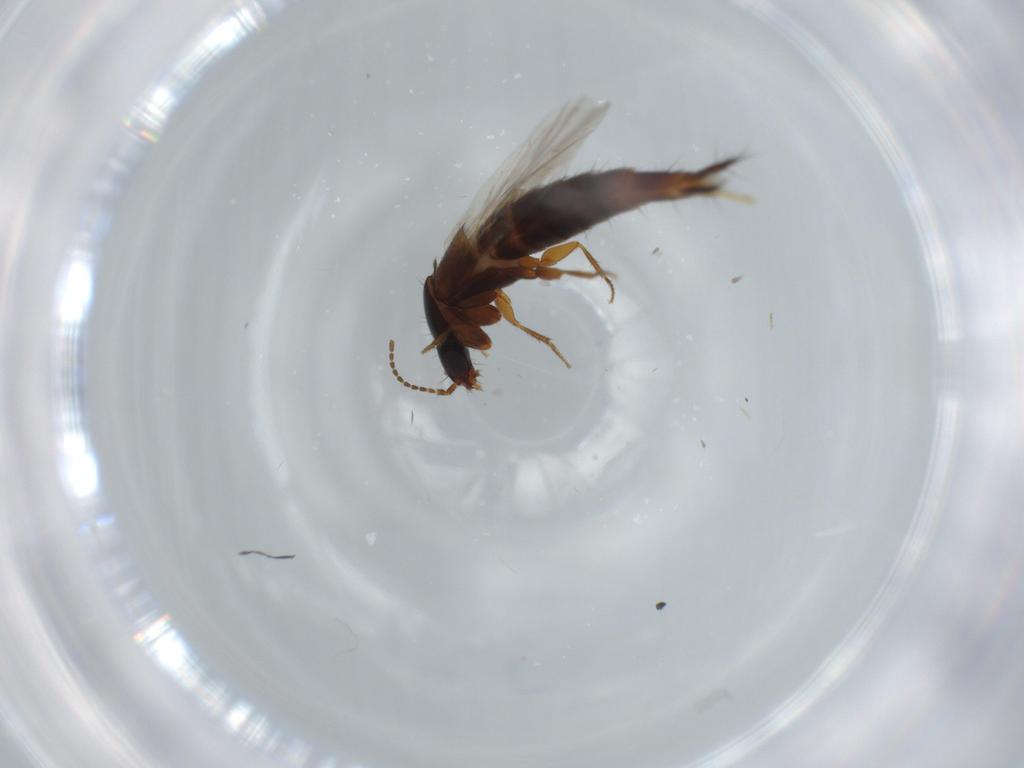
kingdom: Animalia
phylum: Arthropoda
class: Insecta
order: Coleoptera
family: Staphylinidae
